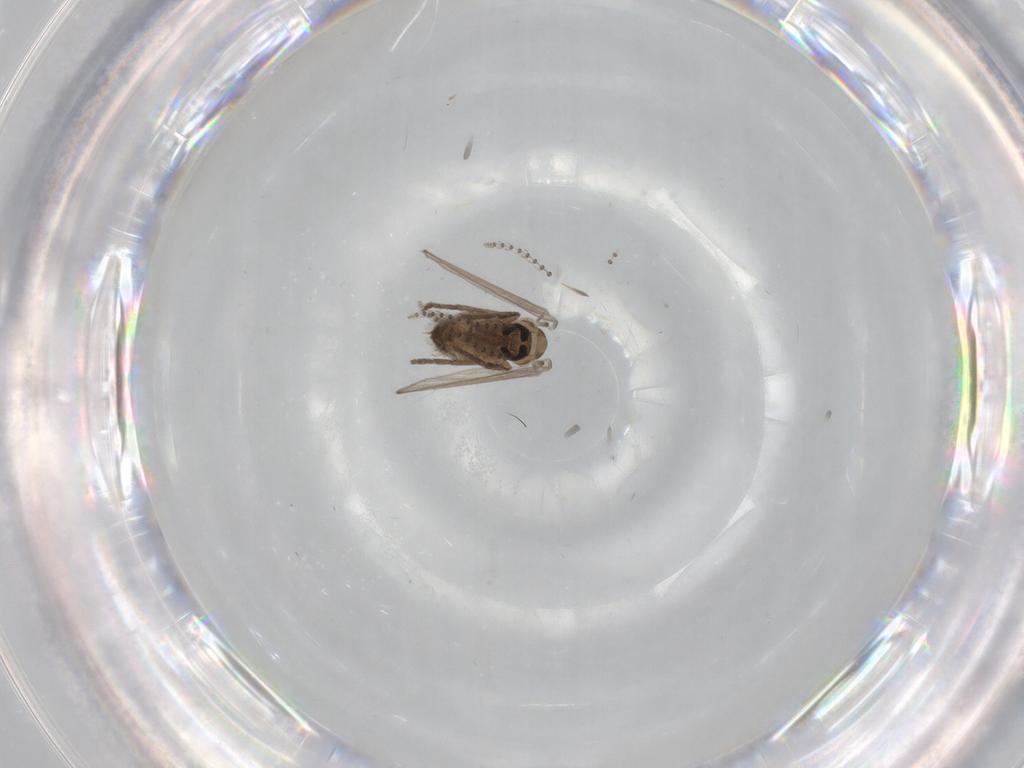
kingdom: Animalia
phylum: Arthropoda
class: Insecta
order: Diptera
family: Psychodidae
